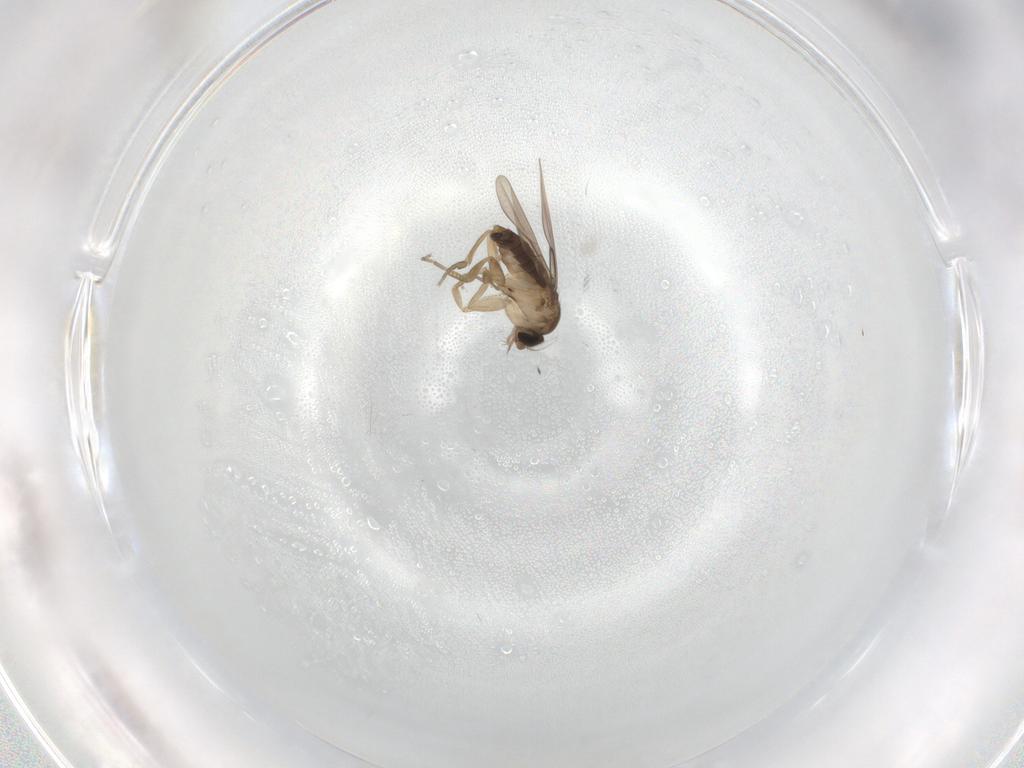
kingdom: Animalia
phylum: Arthropoda
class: Insecta
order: Diptera
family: Phoridae
